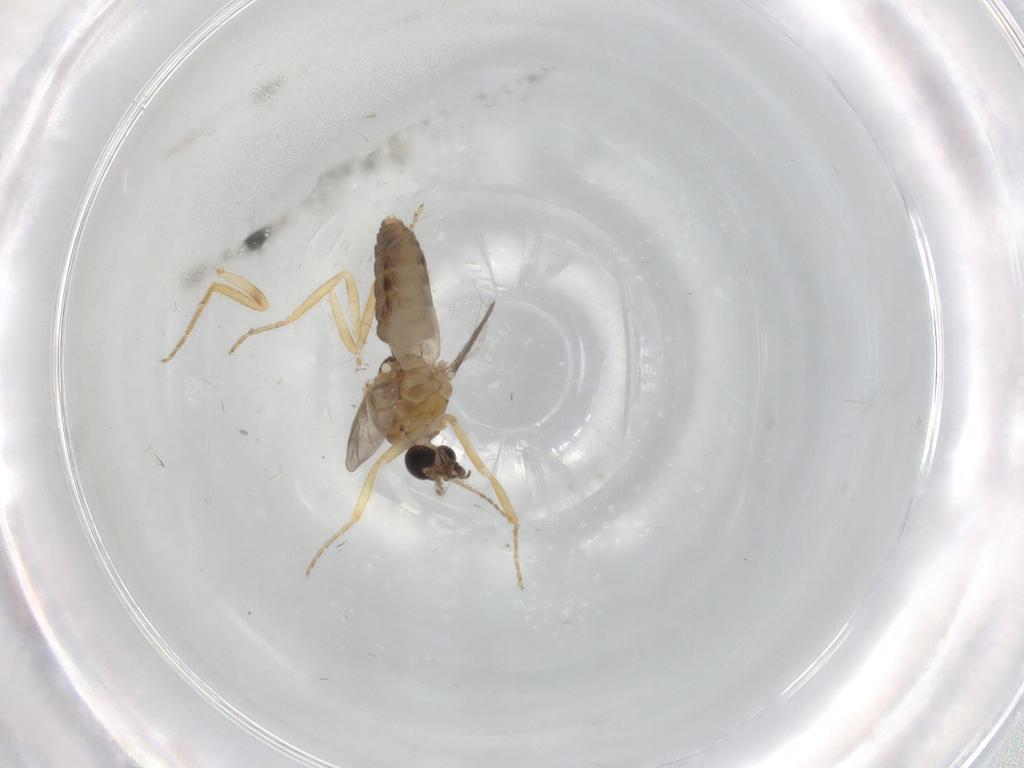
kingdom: Animalia
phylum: Arthropoda
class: Insecta
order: Diptera
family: Ceratopogonidae
